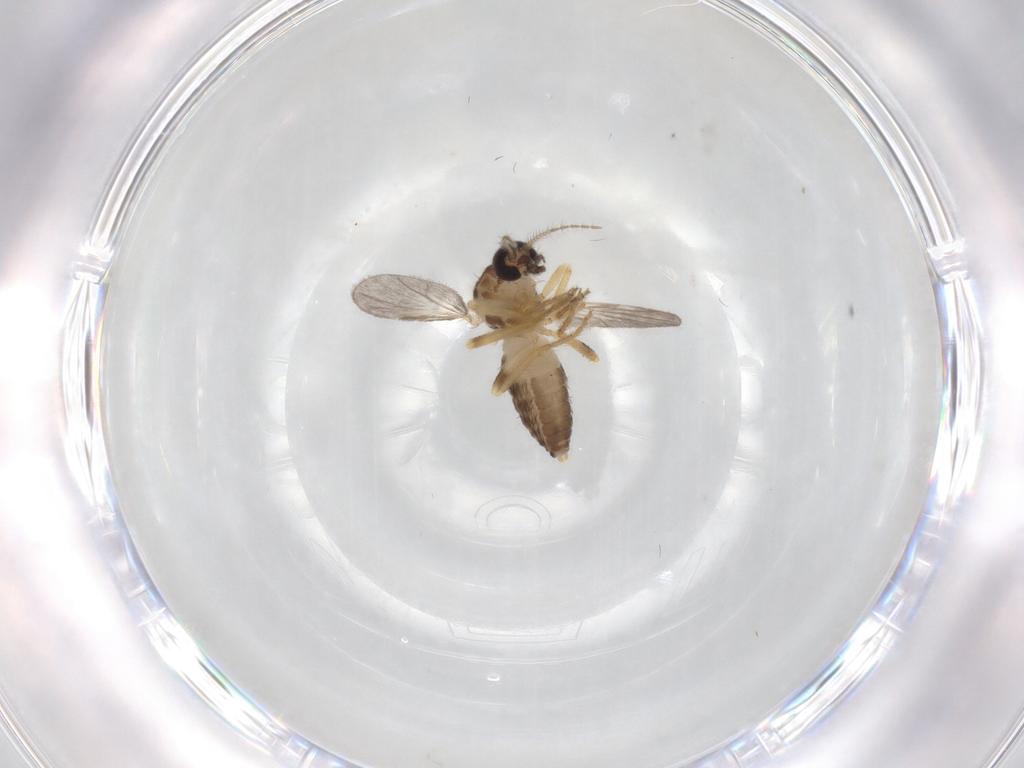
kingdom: Animalia
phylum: Arthropoda
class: Insecta
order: Diptera
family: Ceratopogonidae
